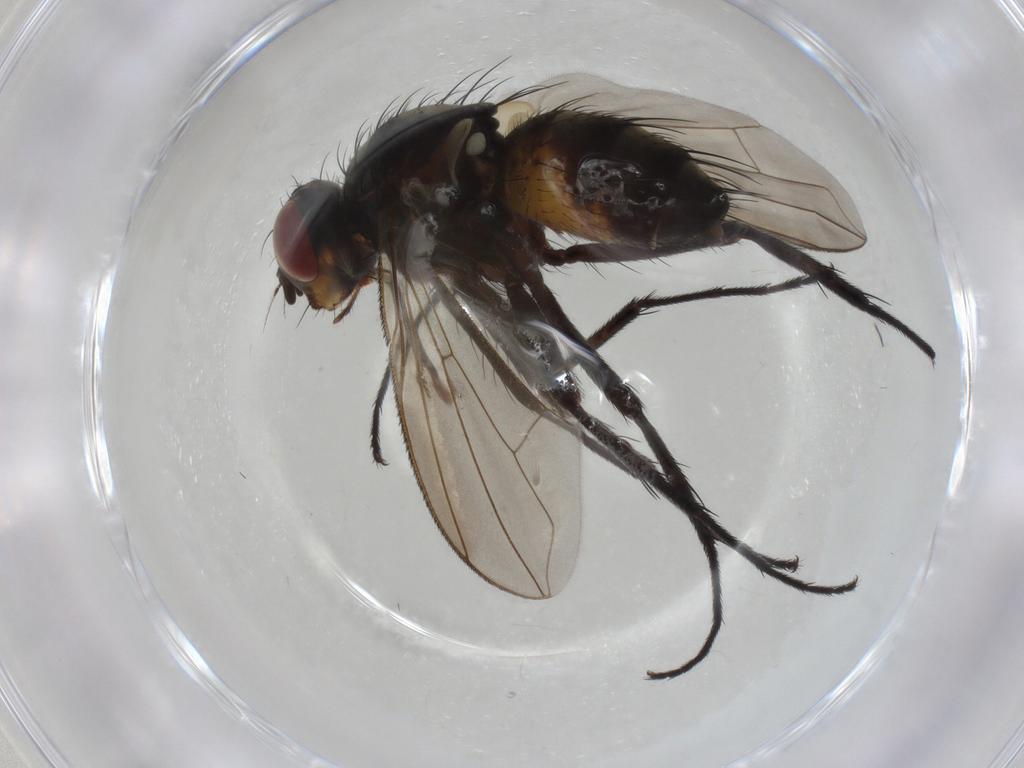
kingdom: Animalia
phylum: Arthropoda
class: Insecta
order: Diptera
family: Tachinidae
